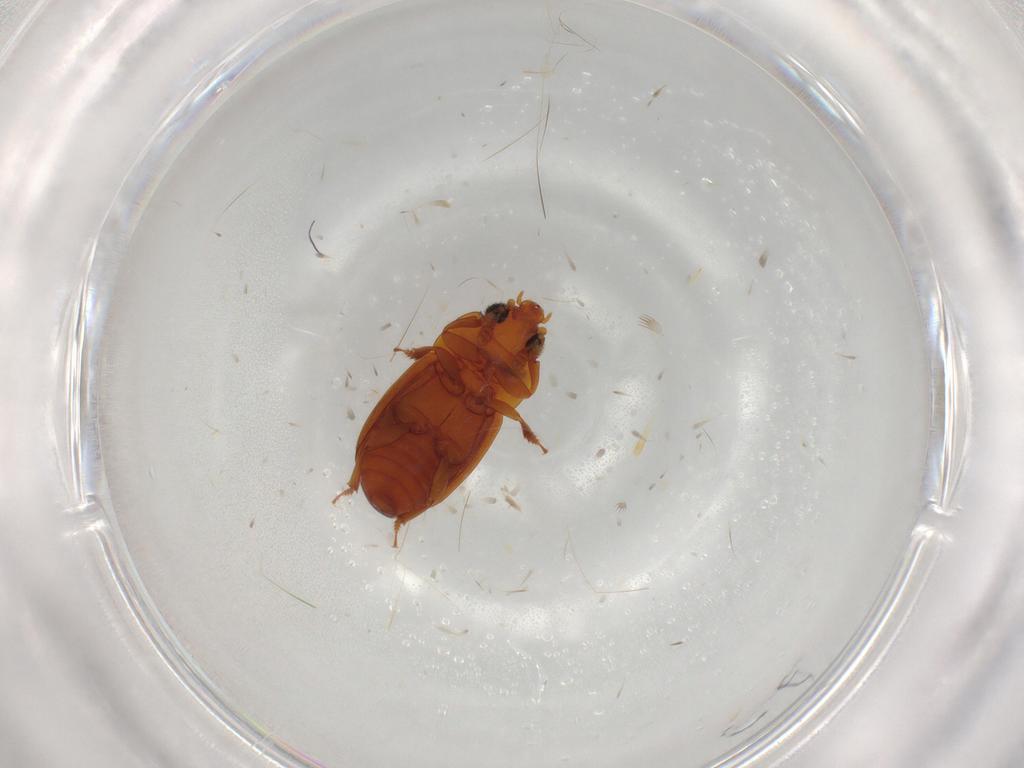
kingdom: Animalia
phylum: Arthropoda
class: Insecta
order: Coleoptera
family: Nitidulidae
